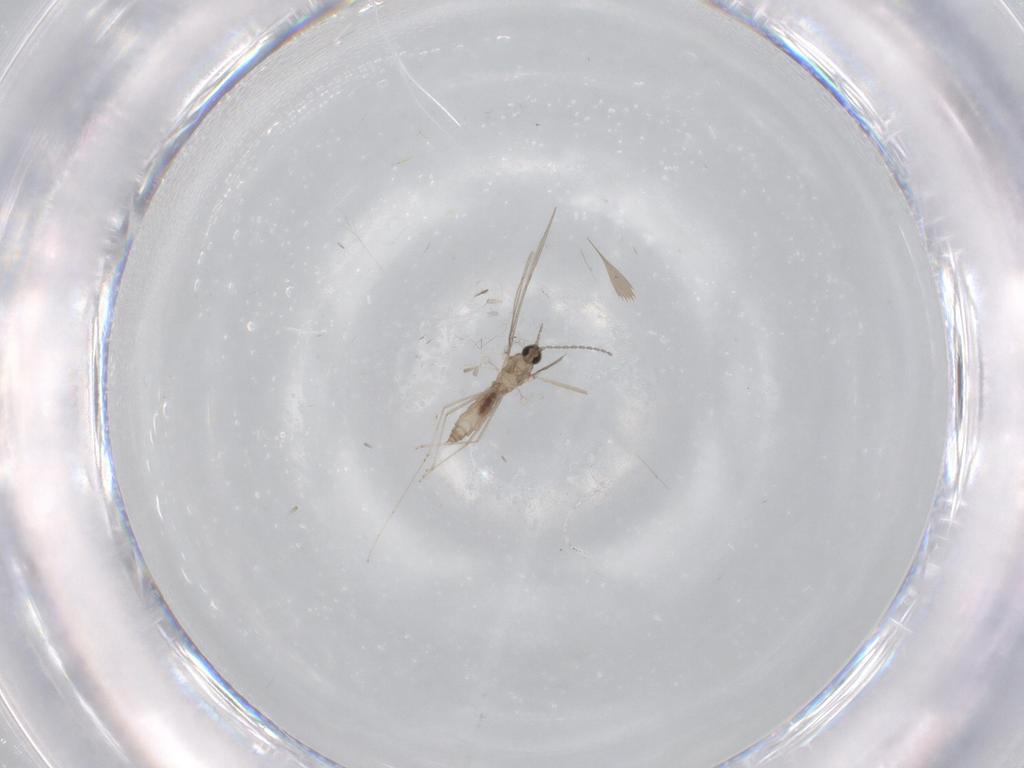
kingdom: Animalia
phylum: Arthropoda
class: Insecta
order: Diptera
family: Cecidomyiidae
